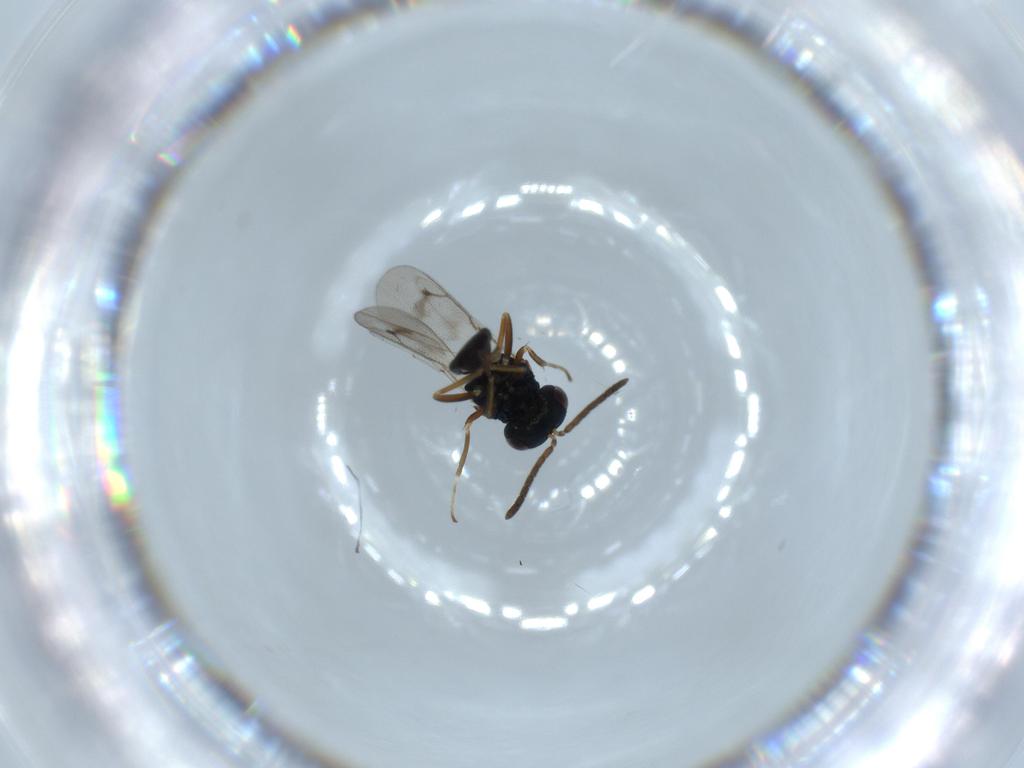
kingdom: Animalia
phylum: Arthropoda
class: Insecta
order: Hymenoptera
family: Pteromalidae
